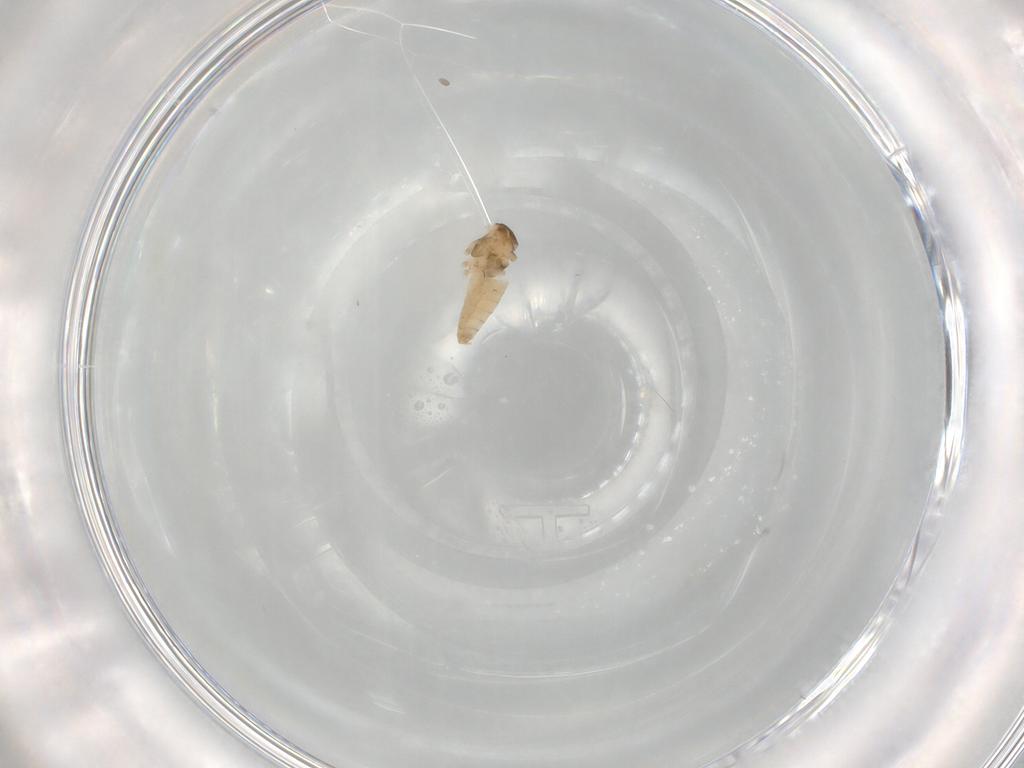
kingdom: Animalia
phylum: Arthropoda
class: Insecta
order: Diptera
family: Cecidomyiidae
